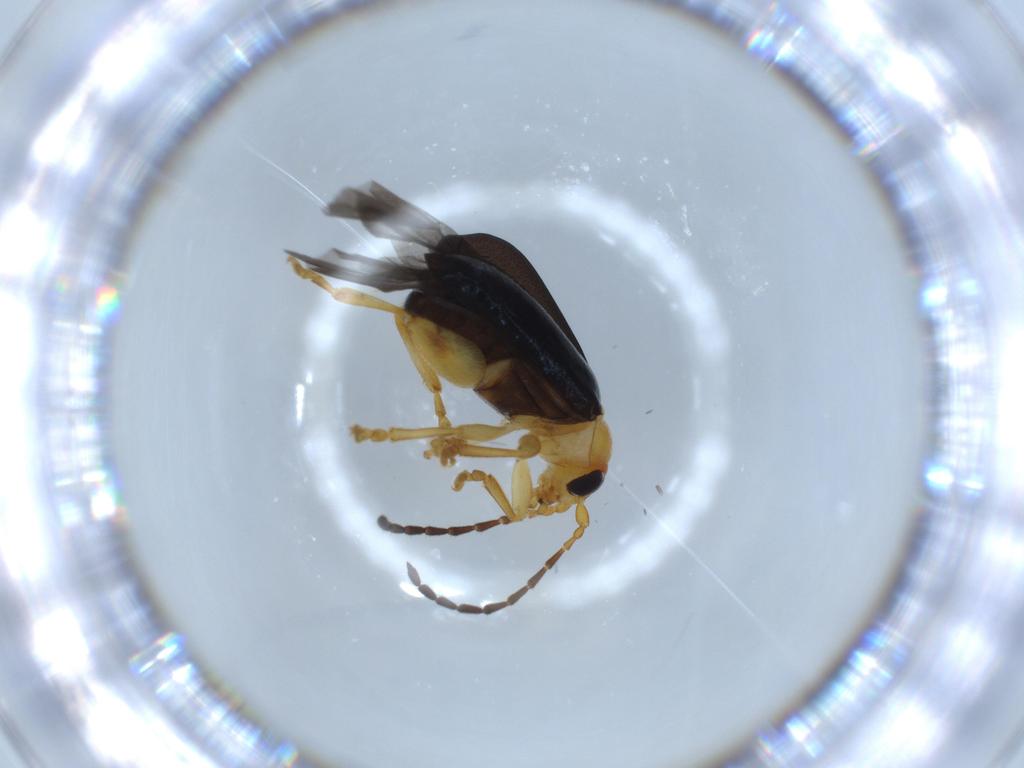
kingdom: Animalia
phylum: Arthropoda
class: Insecta
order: Coleoptera
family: Chrysomelidae
